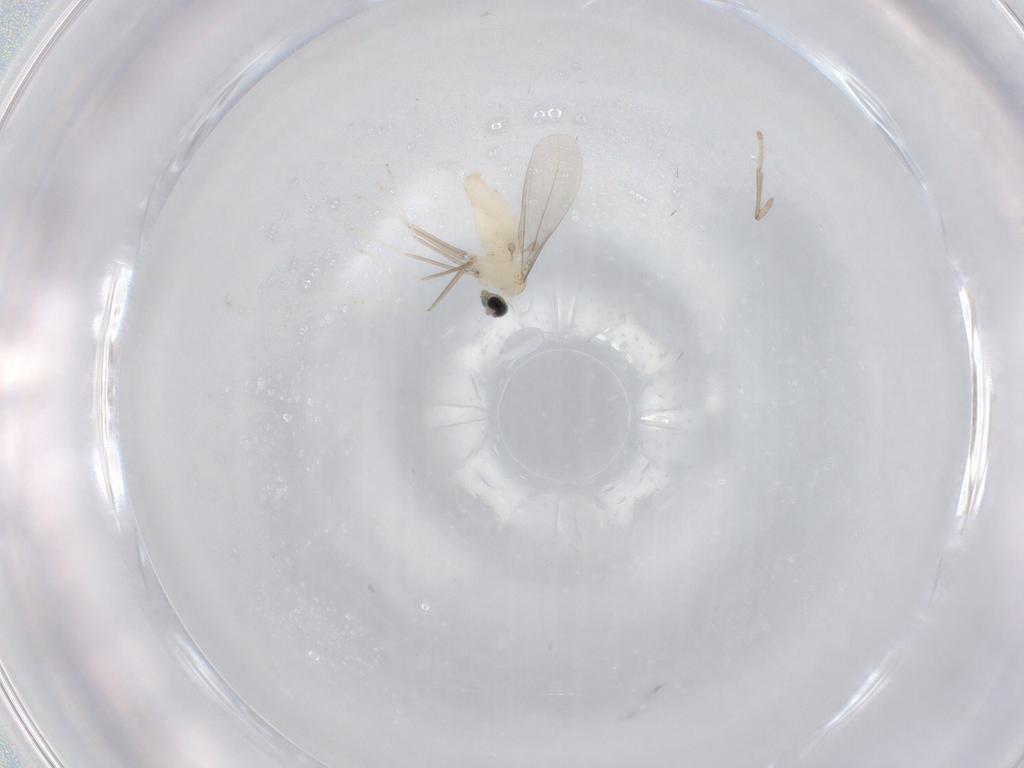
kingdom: Animalia
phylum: Arthropoda
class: Insecta
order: Diptera
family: Cecidomyiidae
